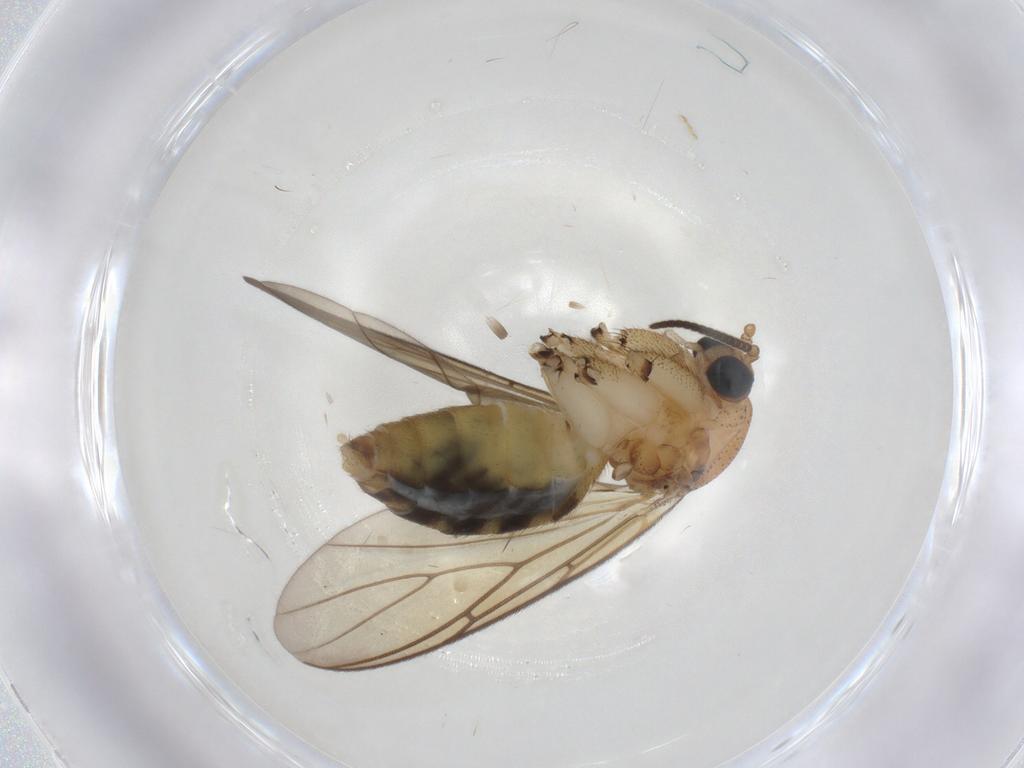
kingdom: Animalia
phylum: Arthropoda
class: Insecta
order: Diptera
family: Mycetophilidae
